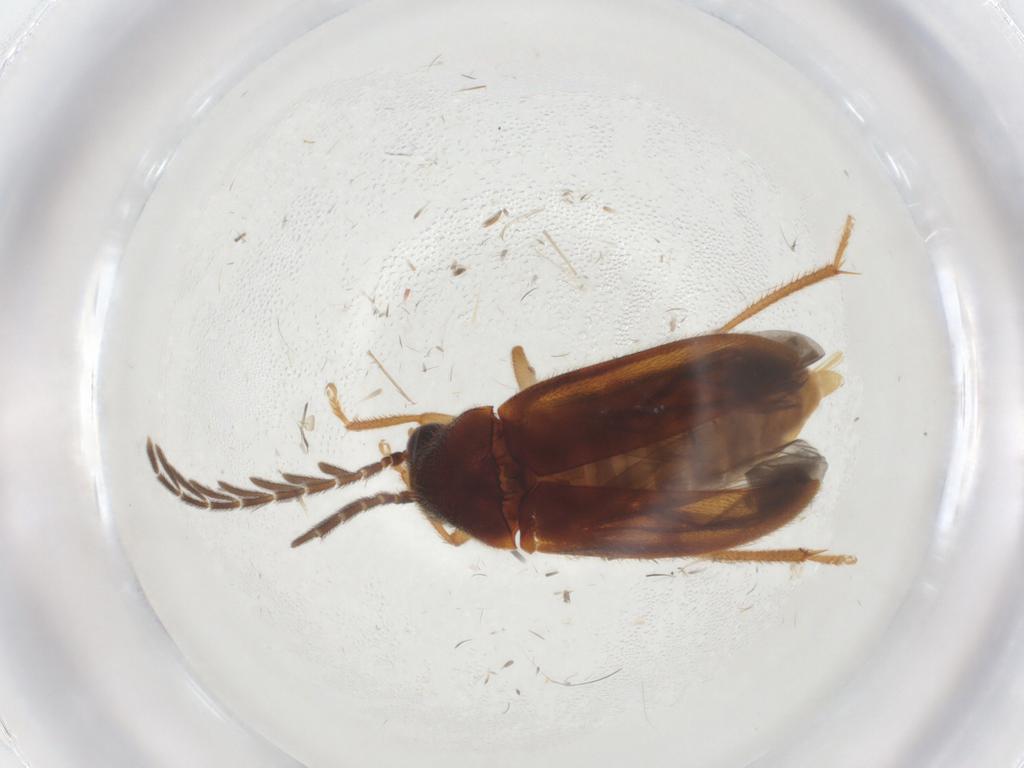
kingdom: Animalia
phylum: Arthropoda
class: Insecta
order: Coleoptera
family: Ptilodactylidae
